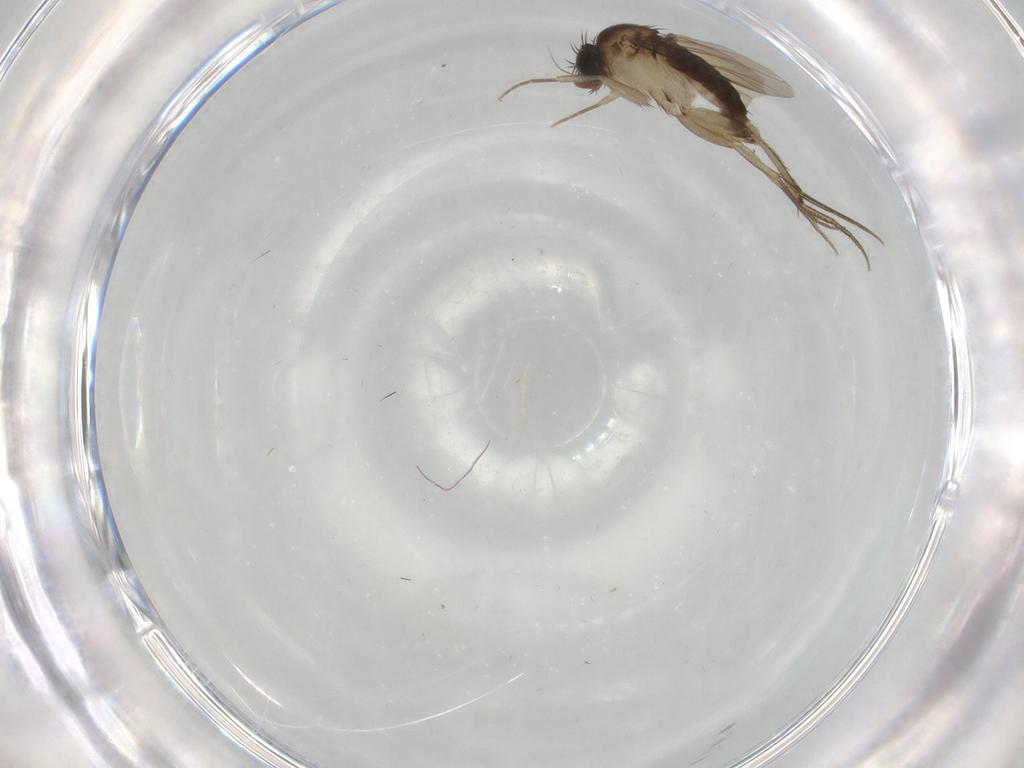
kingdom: Animalia
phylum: Arthropoda
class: Insecta
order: Diptera
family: Phoridae
